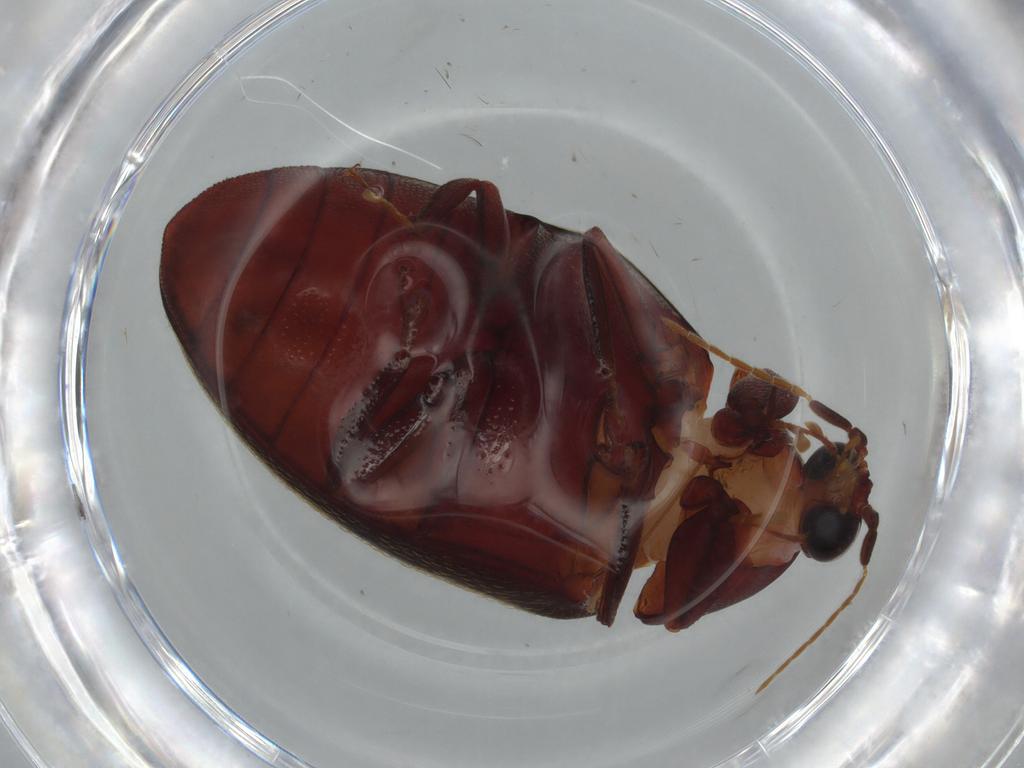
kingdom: Animalia
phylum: Arthropoda
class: Insecta
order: Coleoptera
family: Chelonariidae
